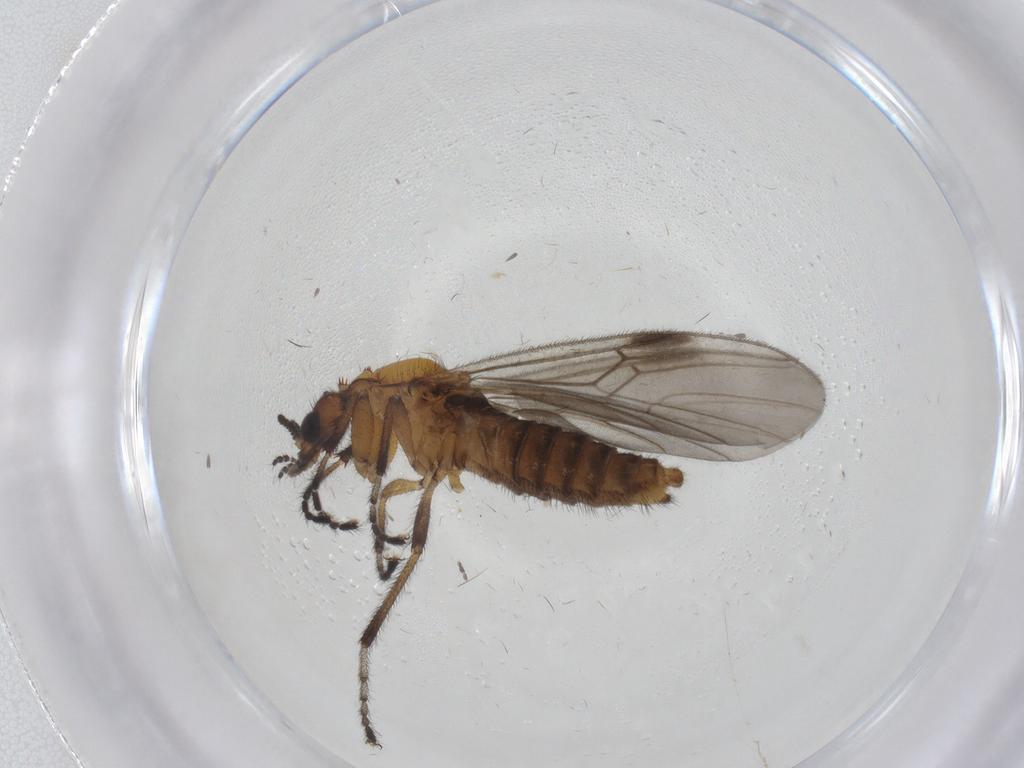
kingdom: Animalia
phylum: Arthropoda
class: Insecta
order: Diptera
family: Bibionidae
